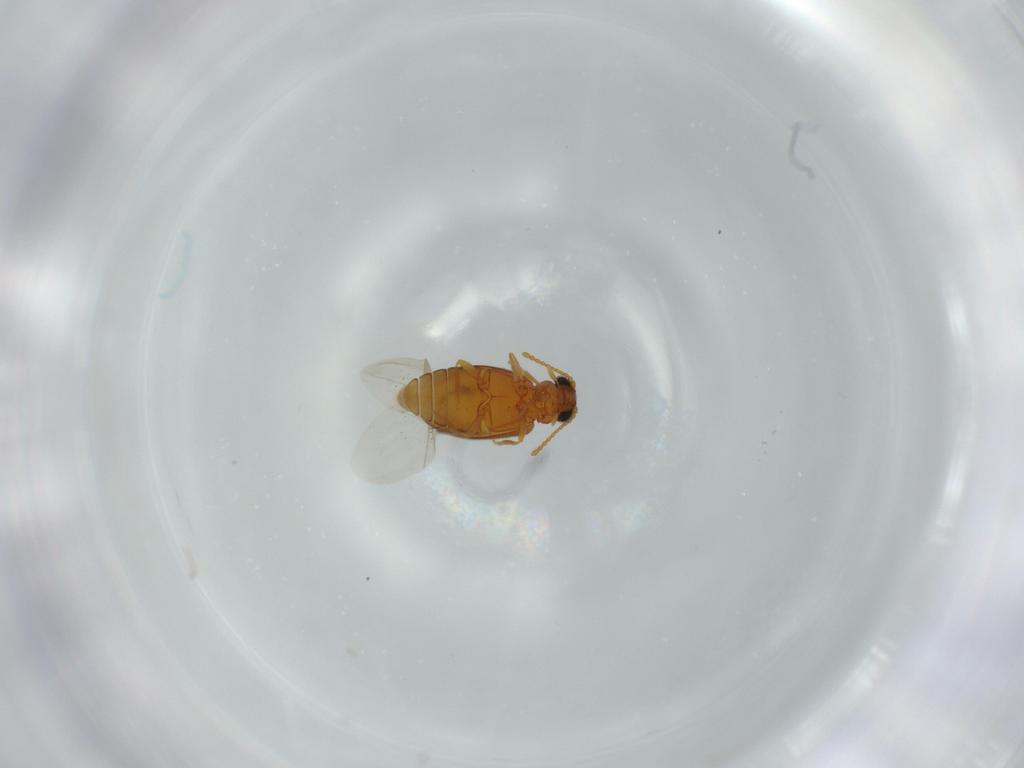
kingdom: Animalia
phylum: Arthropoda
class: Insecta
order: Coleoptera
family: Aderidae
